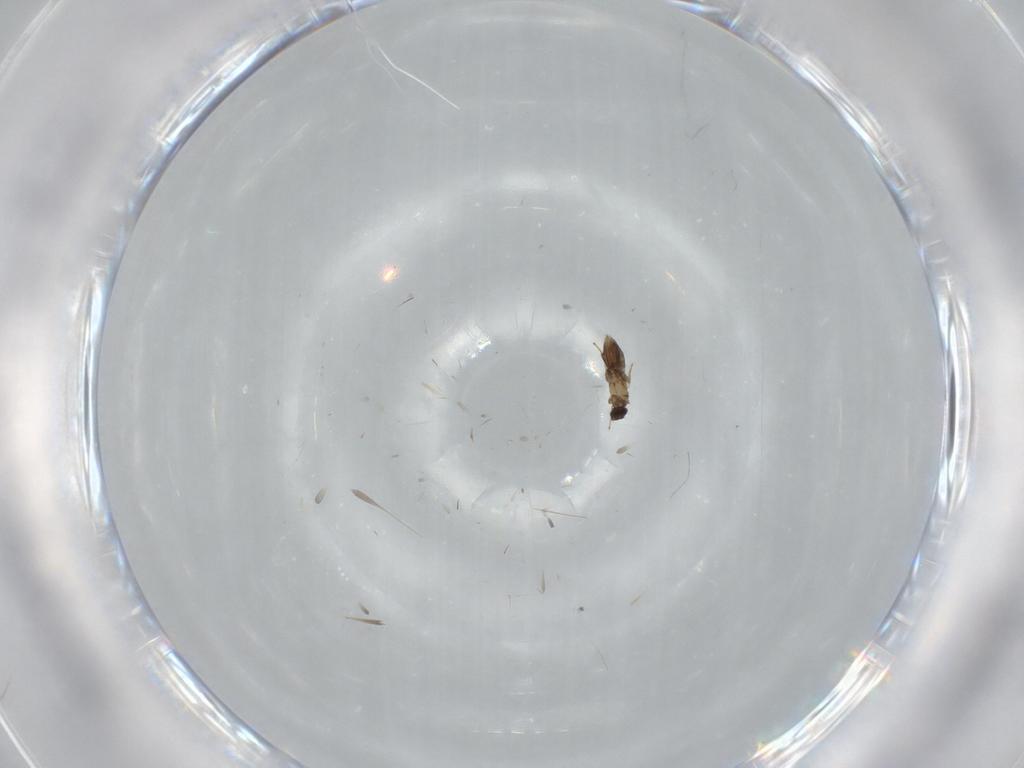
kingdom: Animalia
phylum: Arthropoda
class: Insecta
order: Hymenoptera
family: Mymaridae
